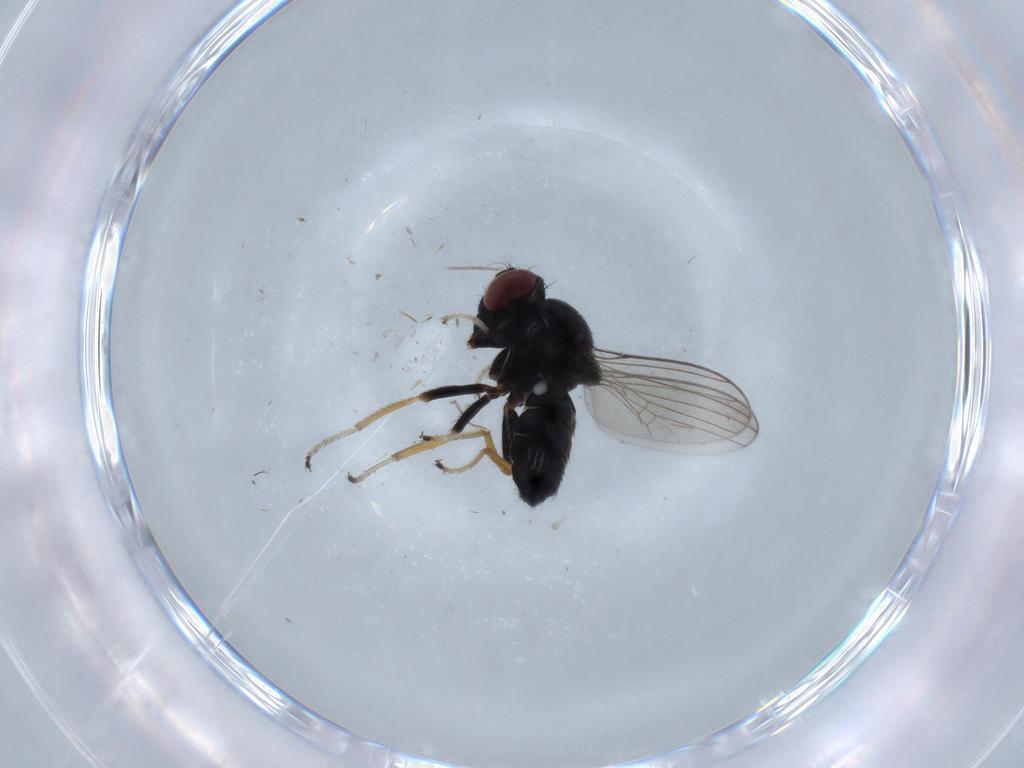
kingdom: Animalia
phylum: Arthropoda
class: Insecta
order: Diptera
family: Ephydridae
